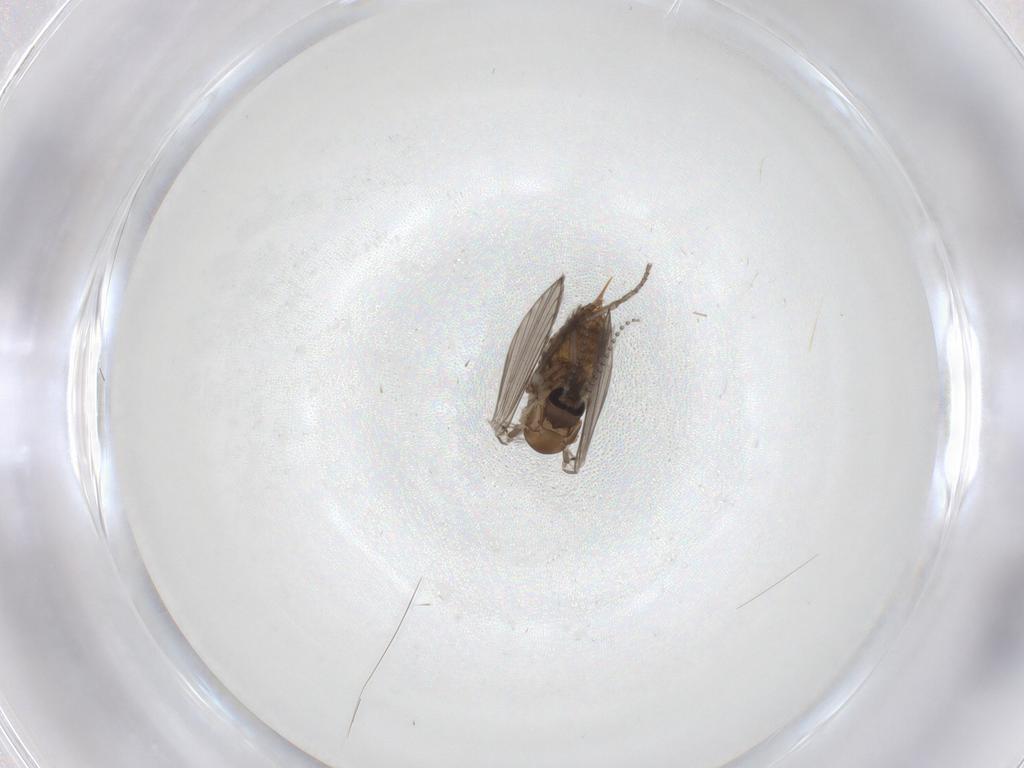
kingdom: Animalia
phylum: Arthropoda
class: Insecta
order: Diptera
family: Psychodidae
